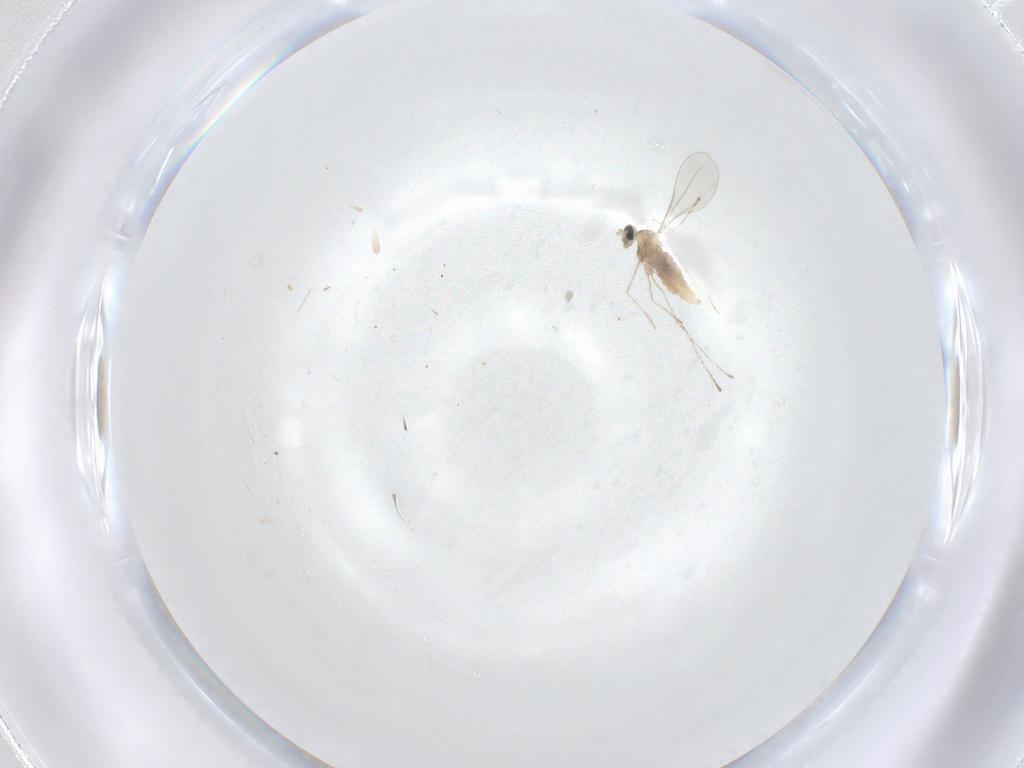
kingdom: Animalia
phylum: Arthropoda
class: Insecta
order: Diptera
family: Cecidomyiidae
